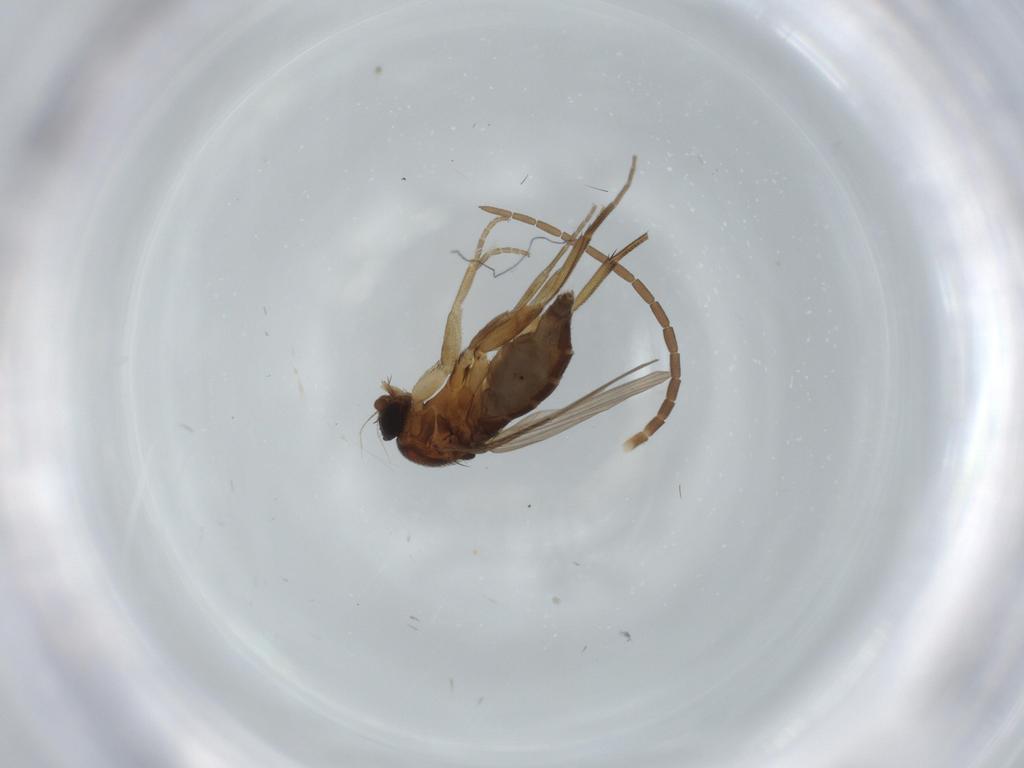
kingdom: Animalia
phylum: Arthropoda
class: Insecta
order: Diptera
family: Phoridae
